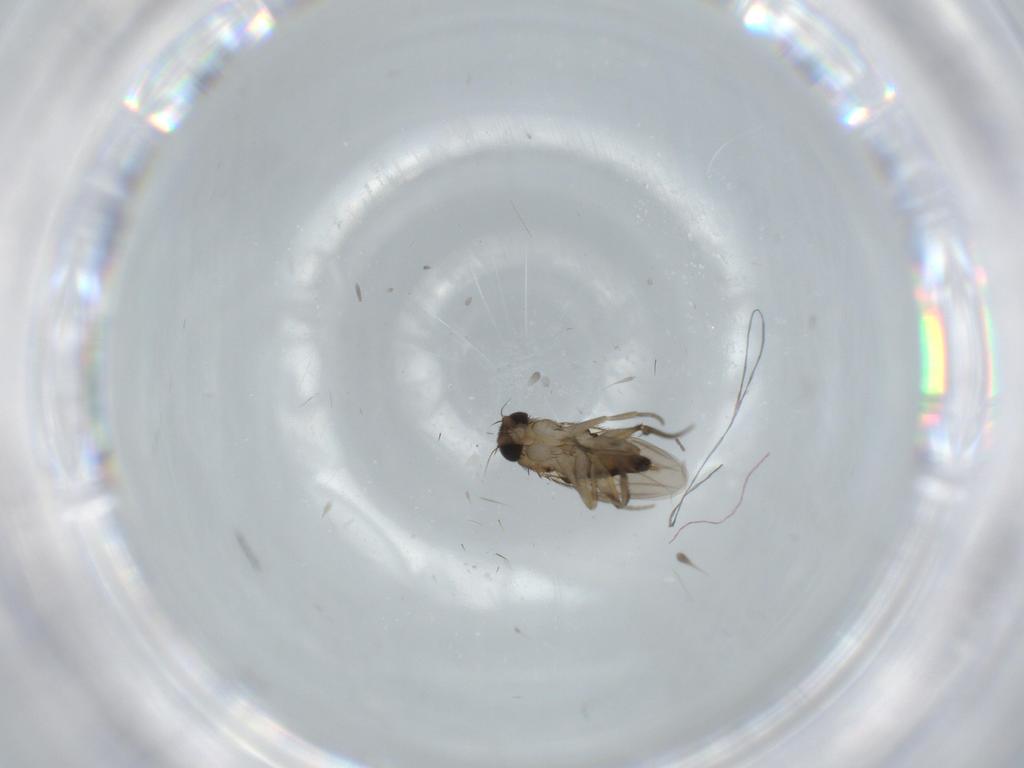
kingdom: Animalia
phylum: Arthropoda
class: Insecta
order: Diptera
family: Phoridae
